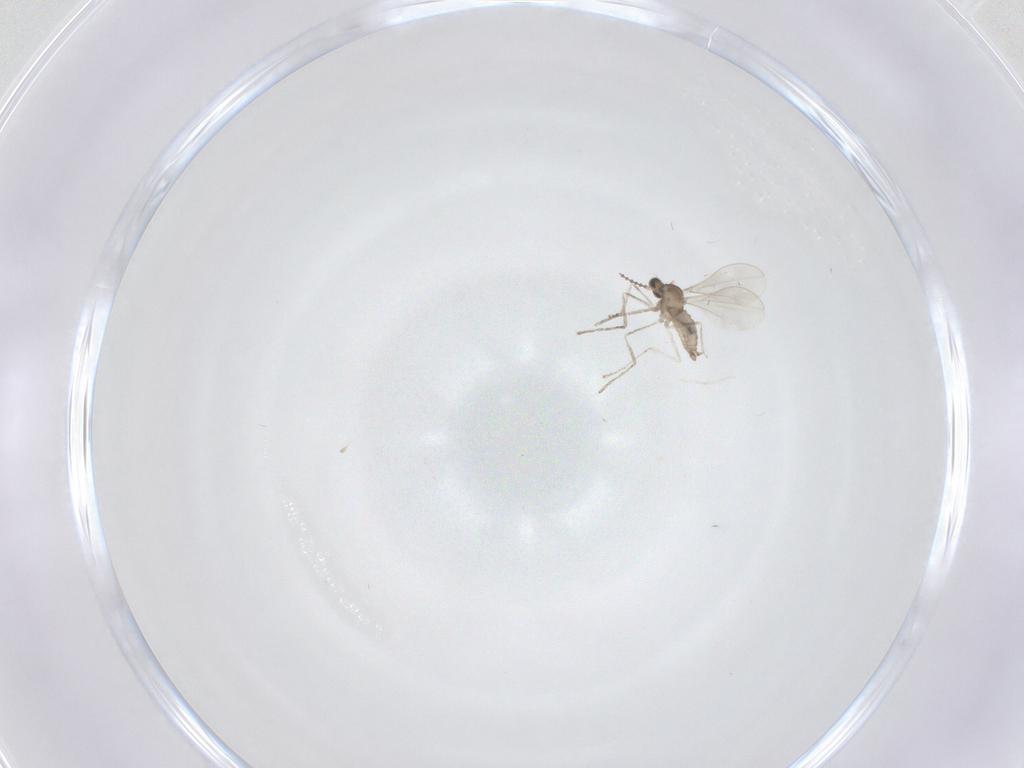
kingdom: Animalia
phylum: Arthropoda
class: Insecta
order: Diptera
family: Cecidomyiidae
